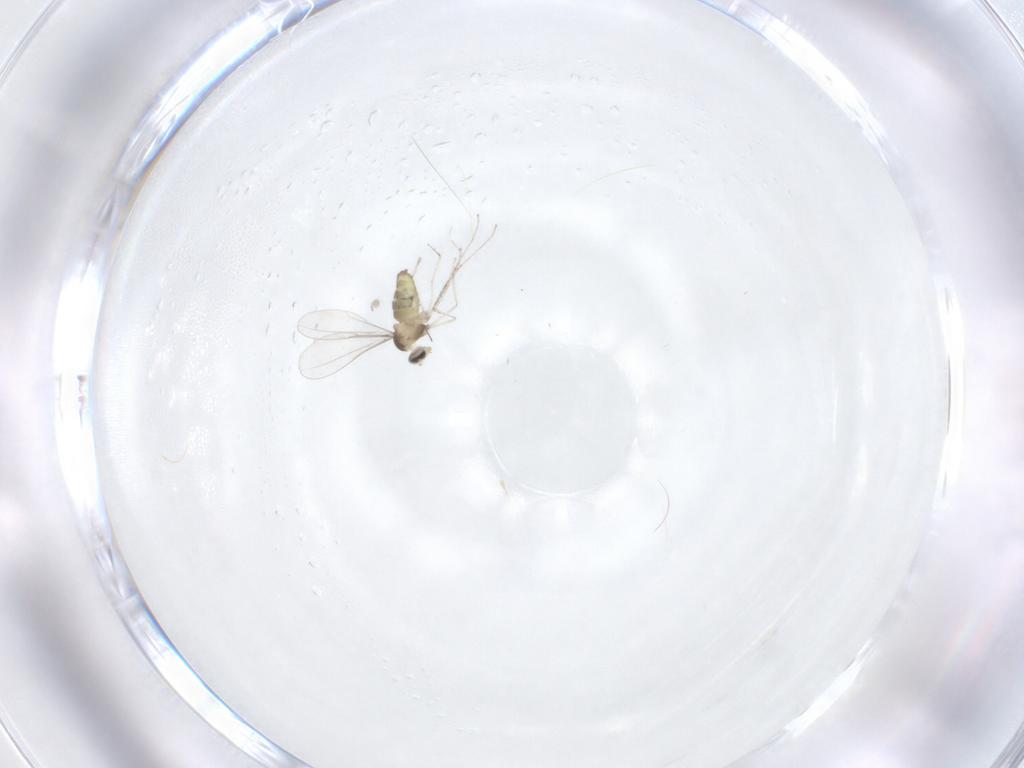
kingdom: Animalia
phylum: Arthropoda
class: Insecta
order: Diptera
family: Cecidomyiidae
